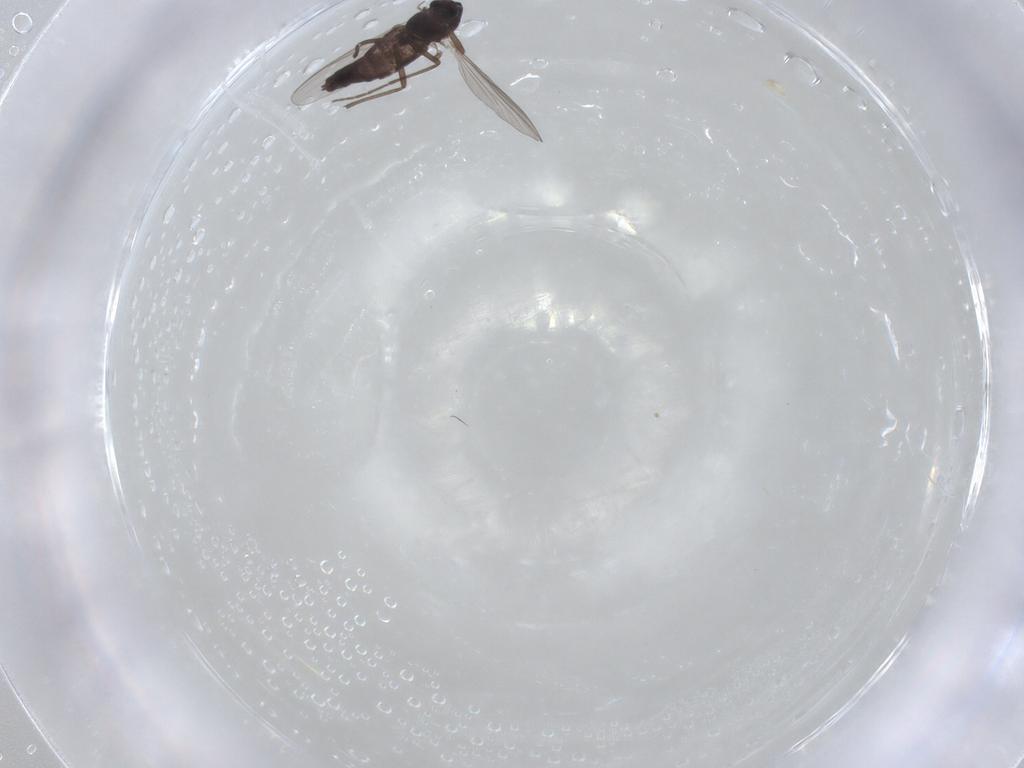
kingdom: Animalia
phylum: Arthropoda
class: Insecta
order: Diptera
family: Chironomidae
